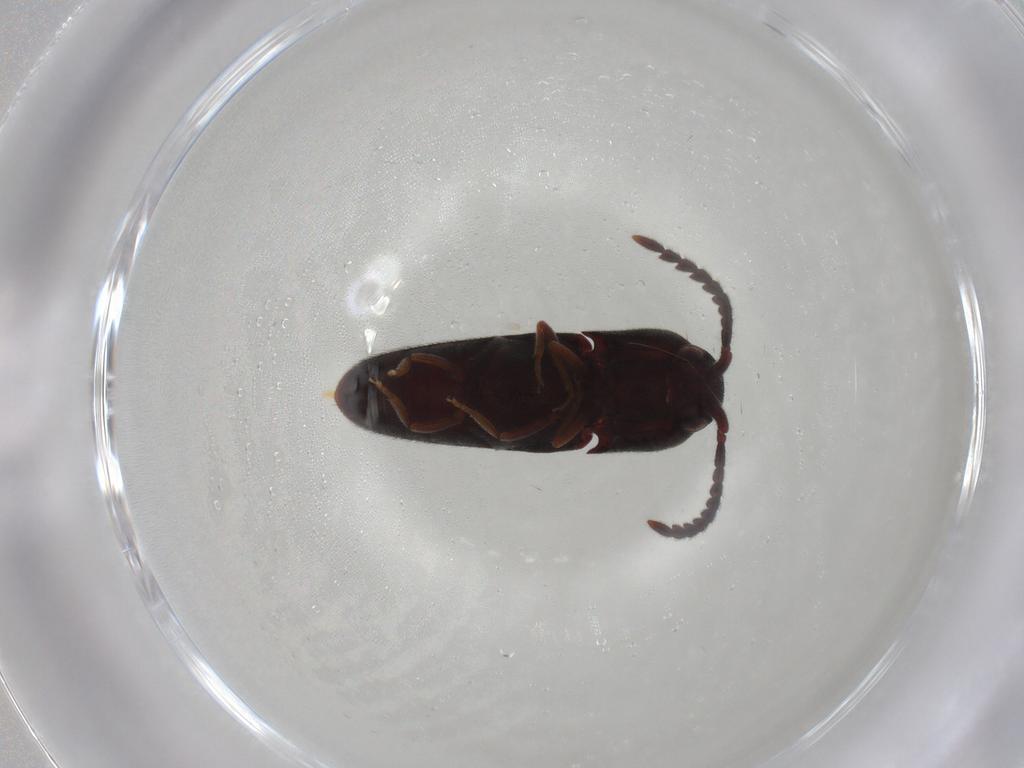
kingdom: Animalia
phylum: Arthropoda
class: Insecta
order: Coleoptera
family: Eucnemidae
